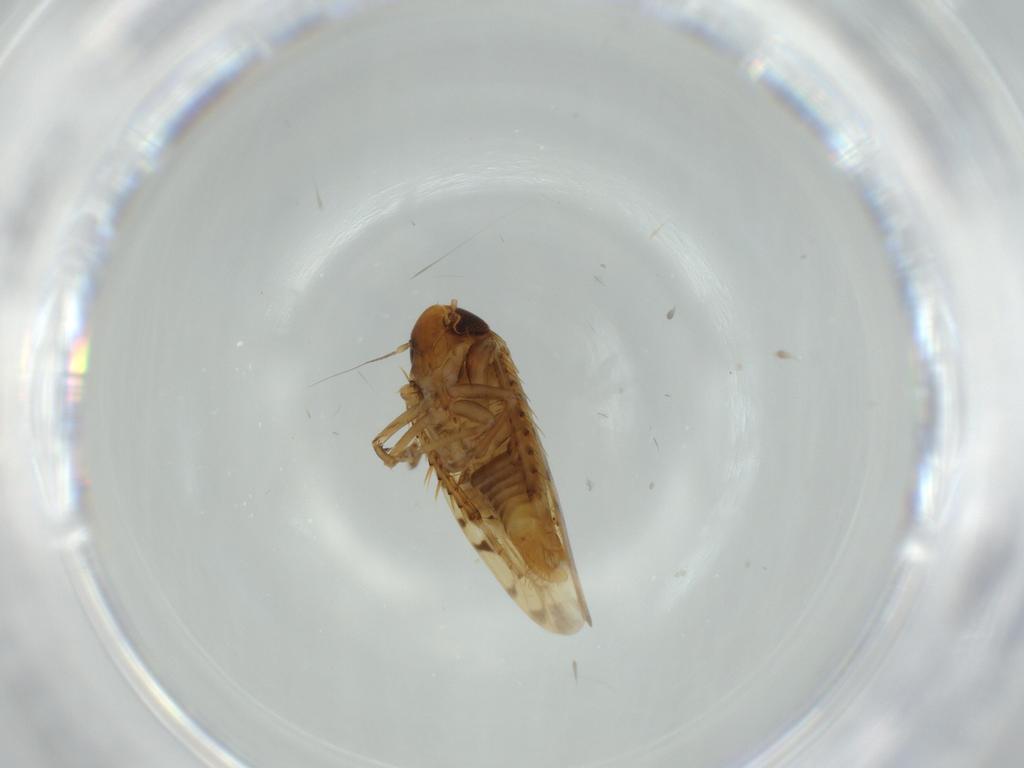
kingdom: Animalia
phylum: Arthropoda
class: Insecta
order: Hemiptera
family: Cicadellidae
